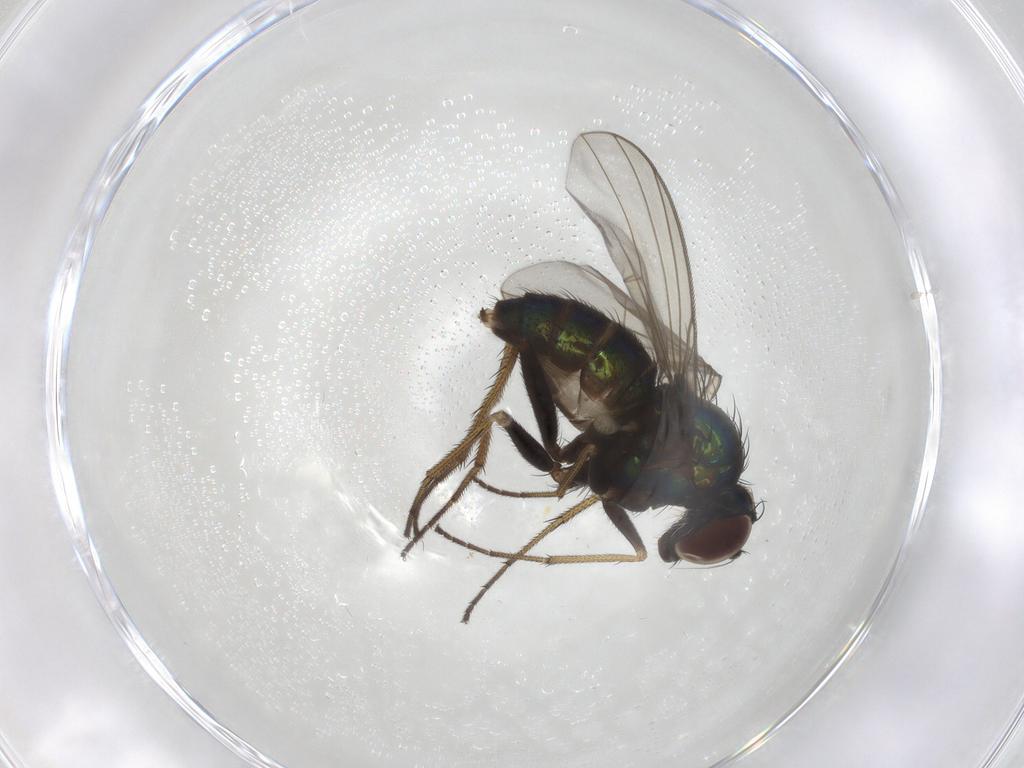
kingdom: Animalia
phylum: Arthropoda
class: Insecta
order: Diptera
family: Dolichopodidae
